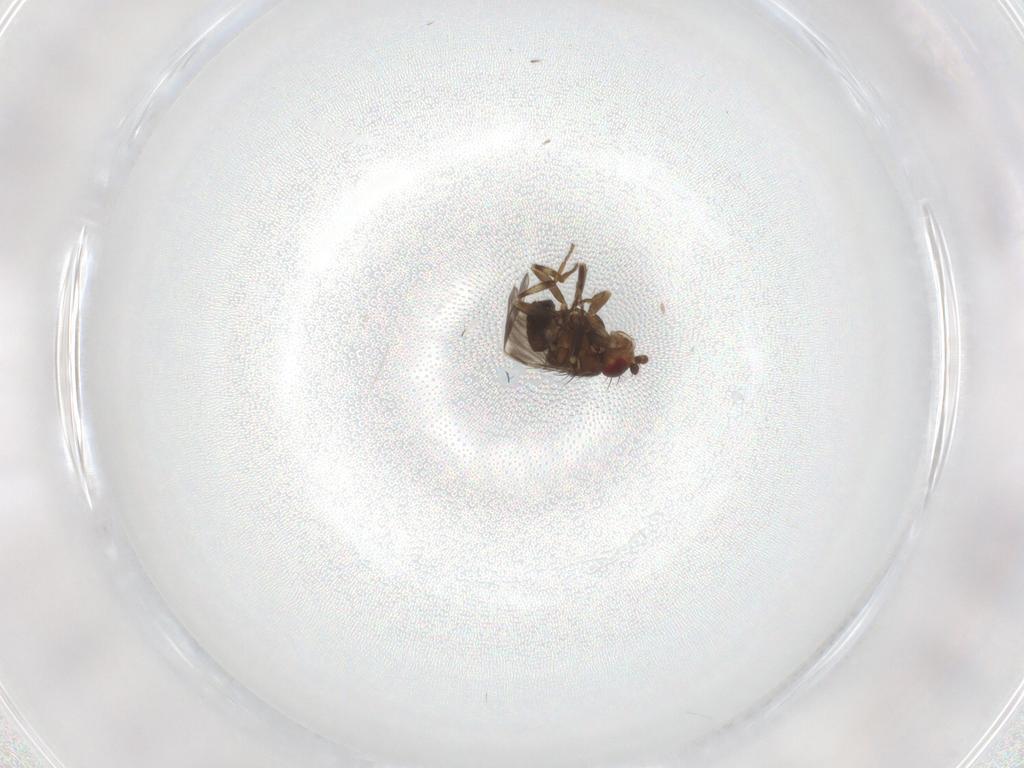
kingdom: Animalia
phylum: Arthropoda
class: Insecta
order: Diptera
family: Sphaeroceridae
